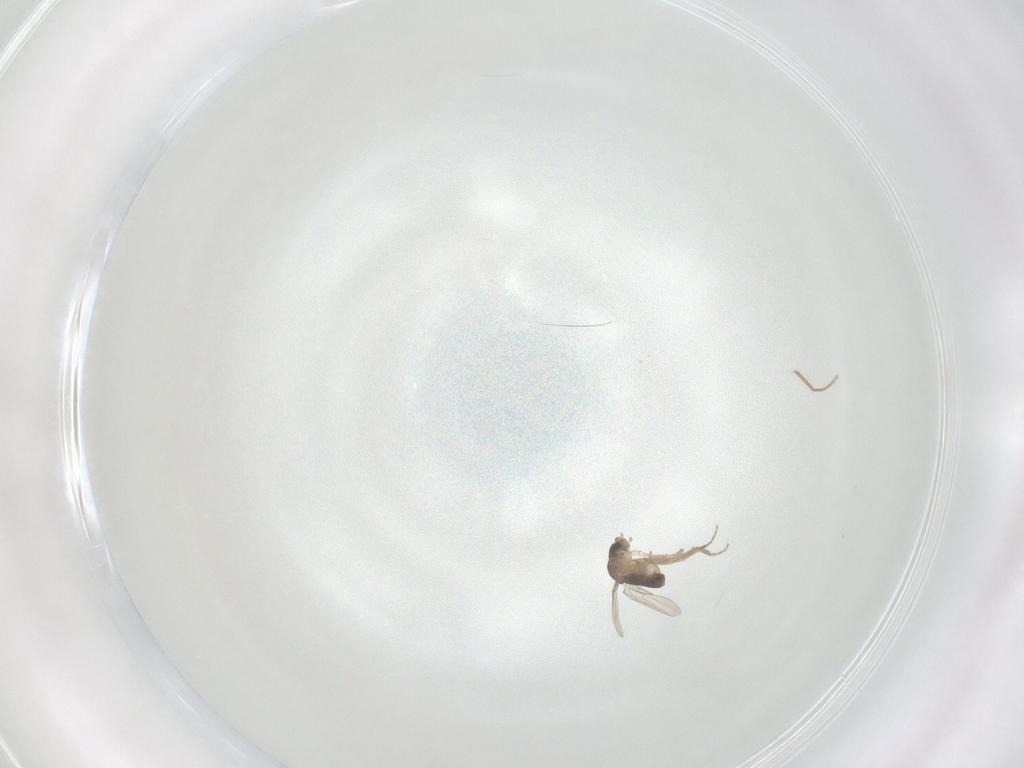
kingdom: Animalia
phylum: Arthropoda
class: Insecta
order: Diptera
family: Sciaridae
